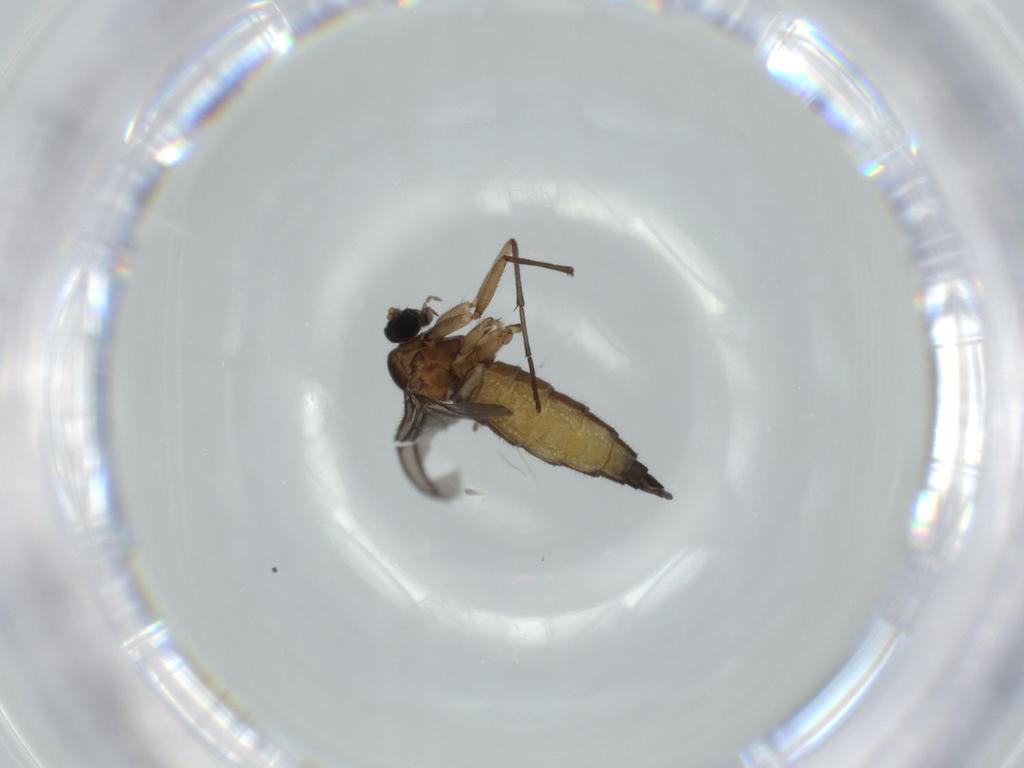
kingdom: Animalia
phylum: Arthropoda
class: Insecta
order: Diptera
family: Sciaridae
